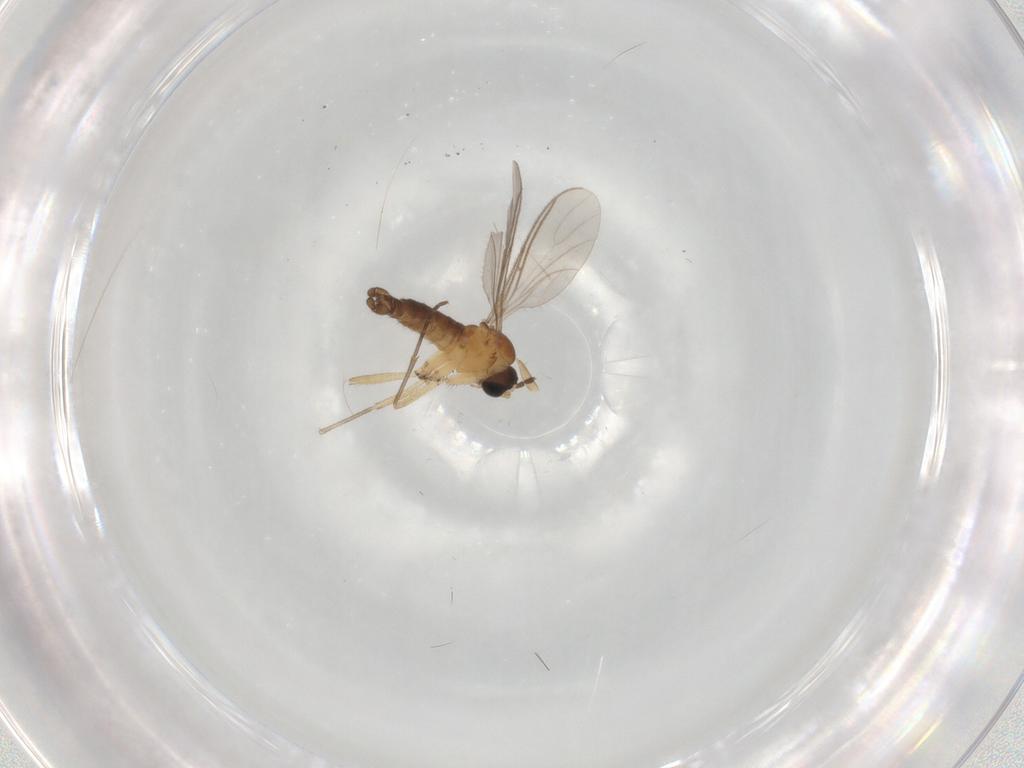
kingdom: Animalia
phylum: Arthropoda
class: Insecta
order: Diptera
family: Sciaridae
